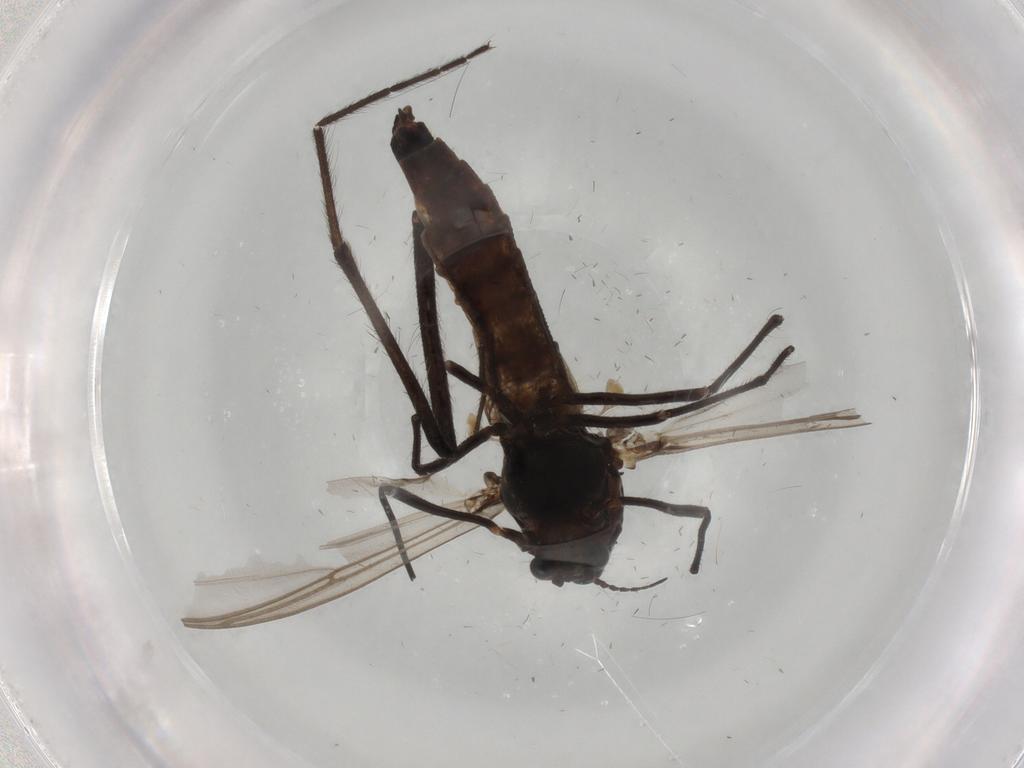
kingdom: Animalia
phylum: Arthropoda
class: Insecta
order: Diptera
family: Chironomidae
